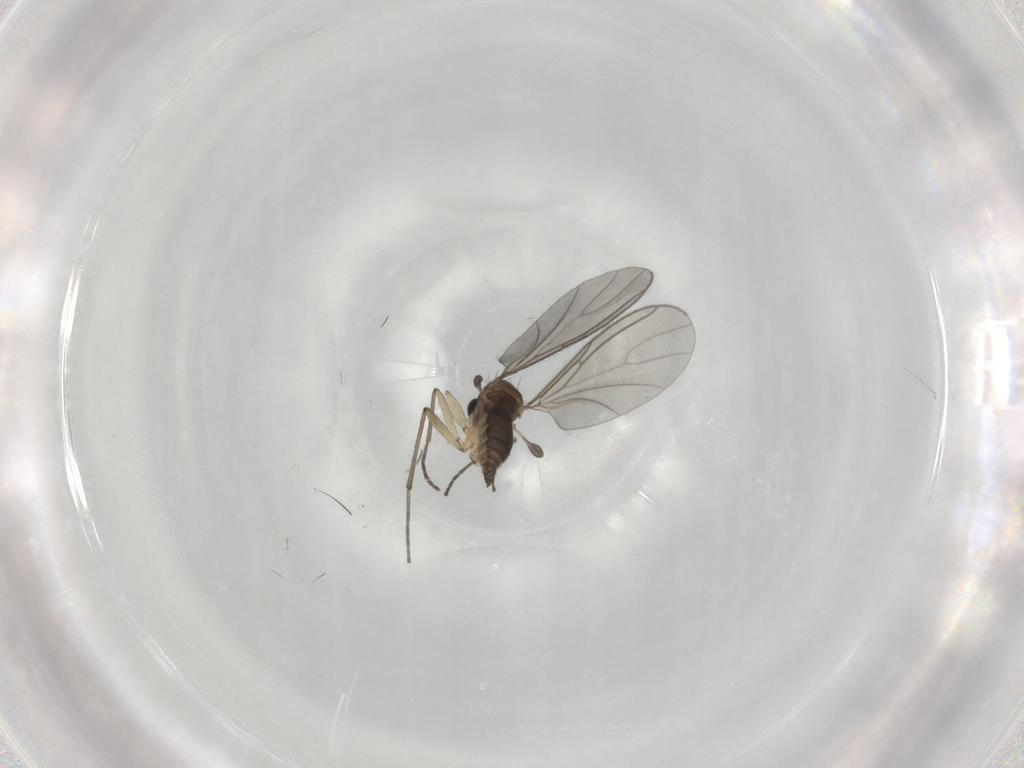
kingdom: Animalia
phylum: Arthropoda
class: Insecta
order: Diptera
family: Sciaridae
